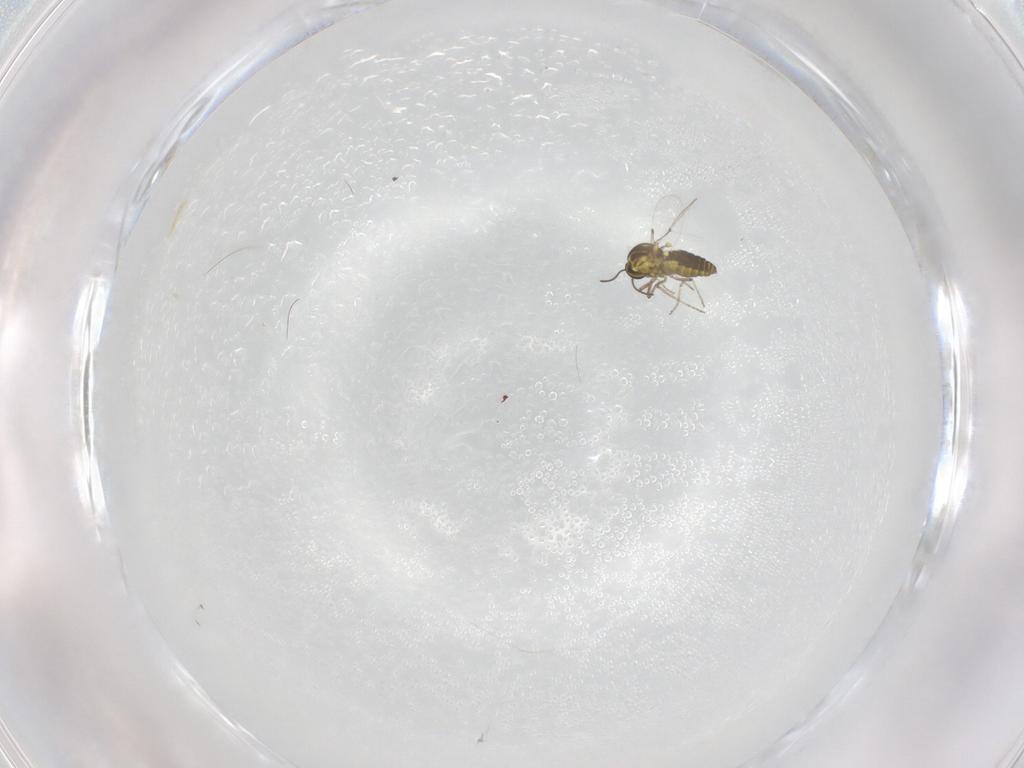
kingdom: Animalia
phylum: Arthropoda
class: Insecta
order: Diptera
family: Ceratopogonidae
